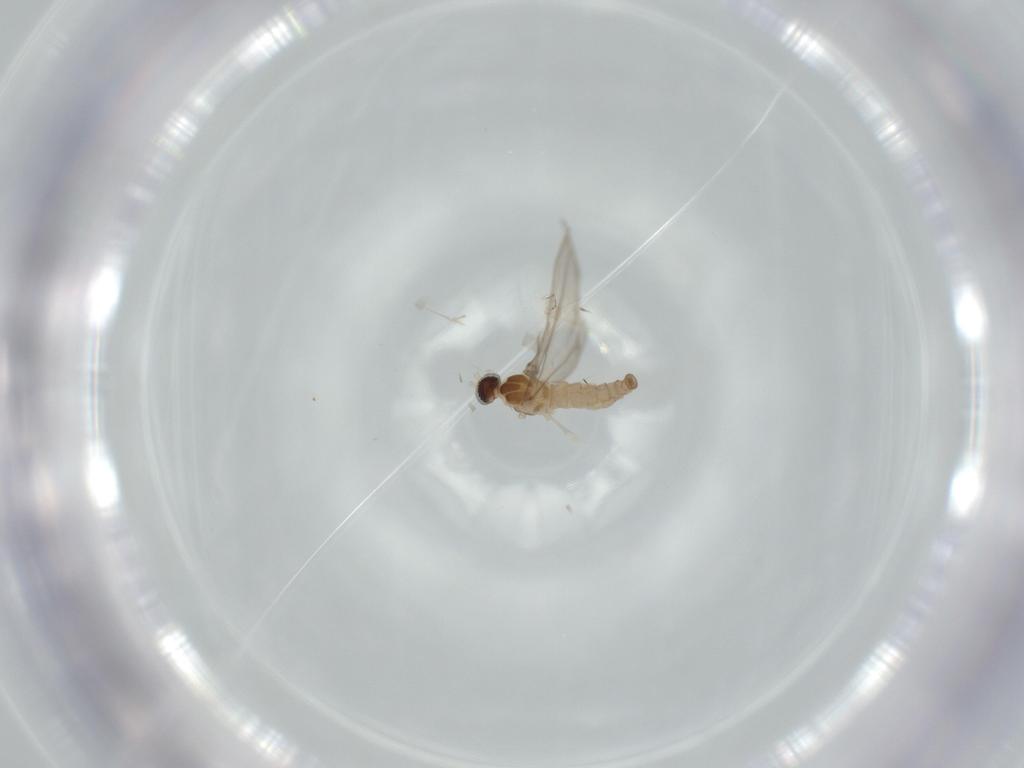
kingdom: Animalia
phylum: Arthropoda
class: Insecta
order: Diptera
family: Cecidomyiidae
